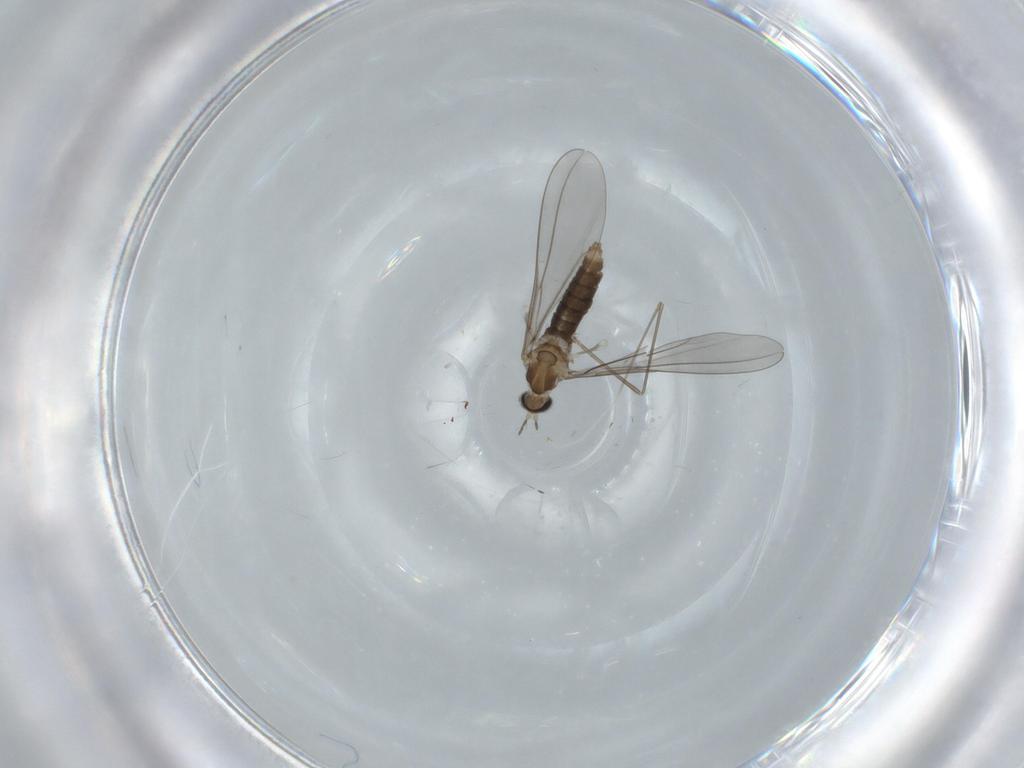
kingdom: Animalia
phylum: Arthropoda
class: Insecta
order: Diptera
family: Cecidomyiidae
